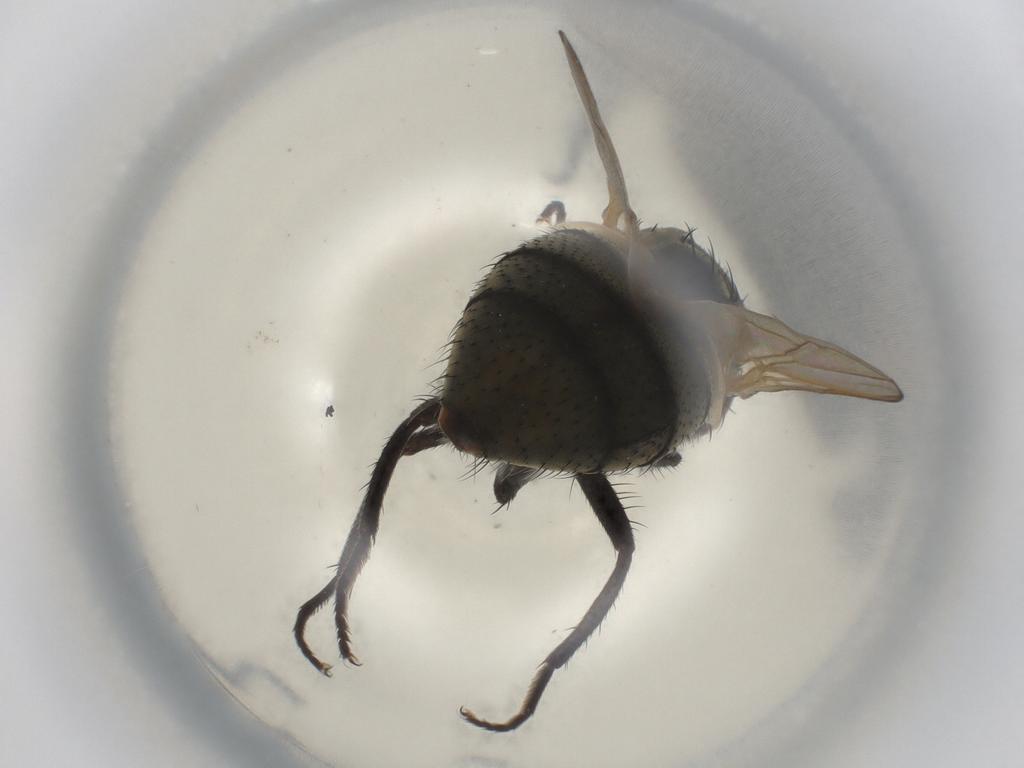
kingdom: Animalia
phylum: Arthropoda
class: Insecta
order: Diptera
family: Muscidae
